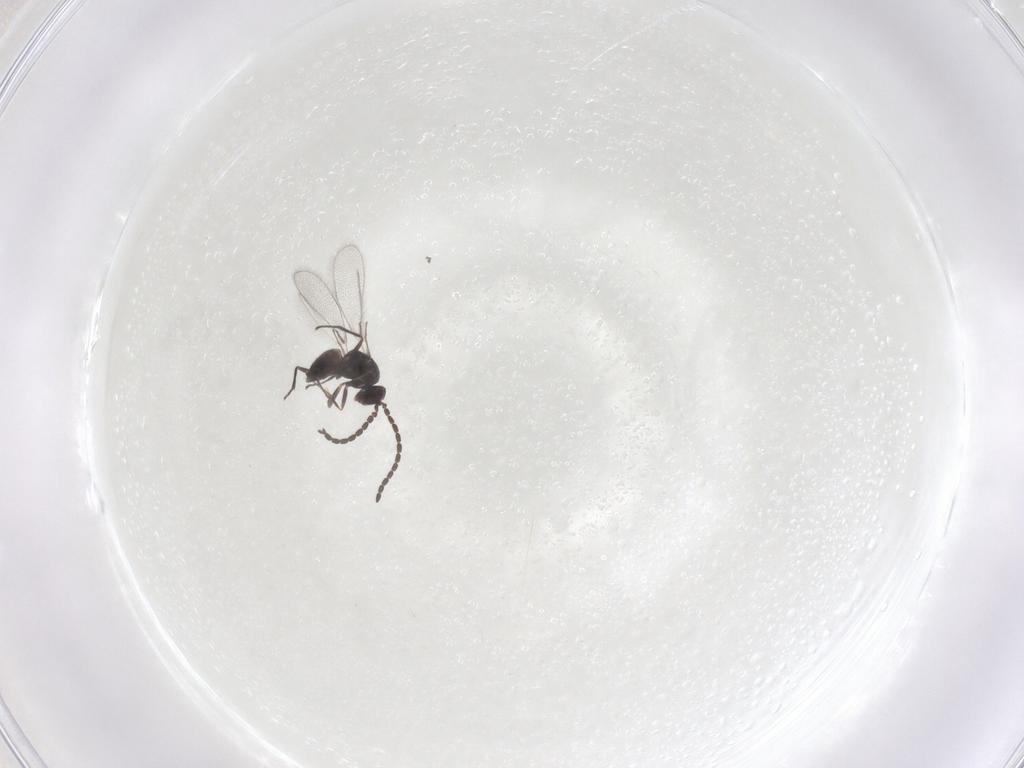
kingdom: Animalia
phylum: Arthropoda
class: Insecta
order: Hymenoptera
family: Mymaridae
